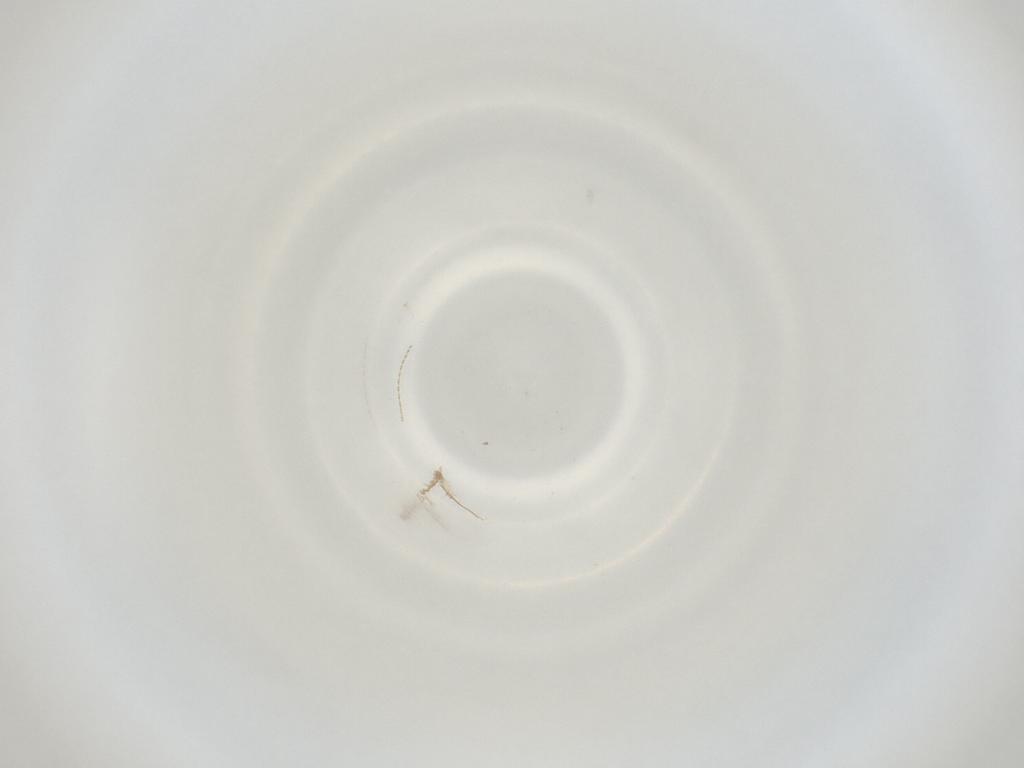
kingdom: Animalia
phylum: Arthropoda
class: Insecta
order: Diptera
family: Cecidomyiidae
